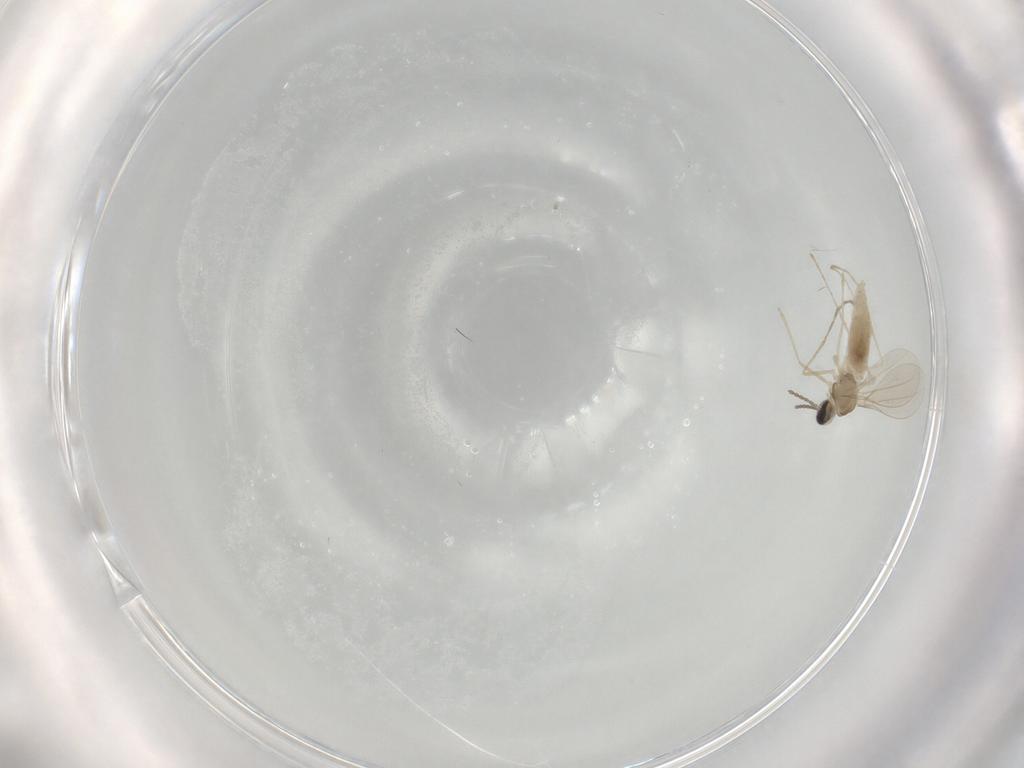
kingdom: Animalia
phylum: Arthropoda
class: Insecta
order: Diptera
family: Cecidomyiidae
